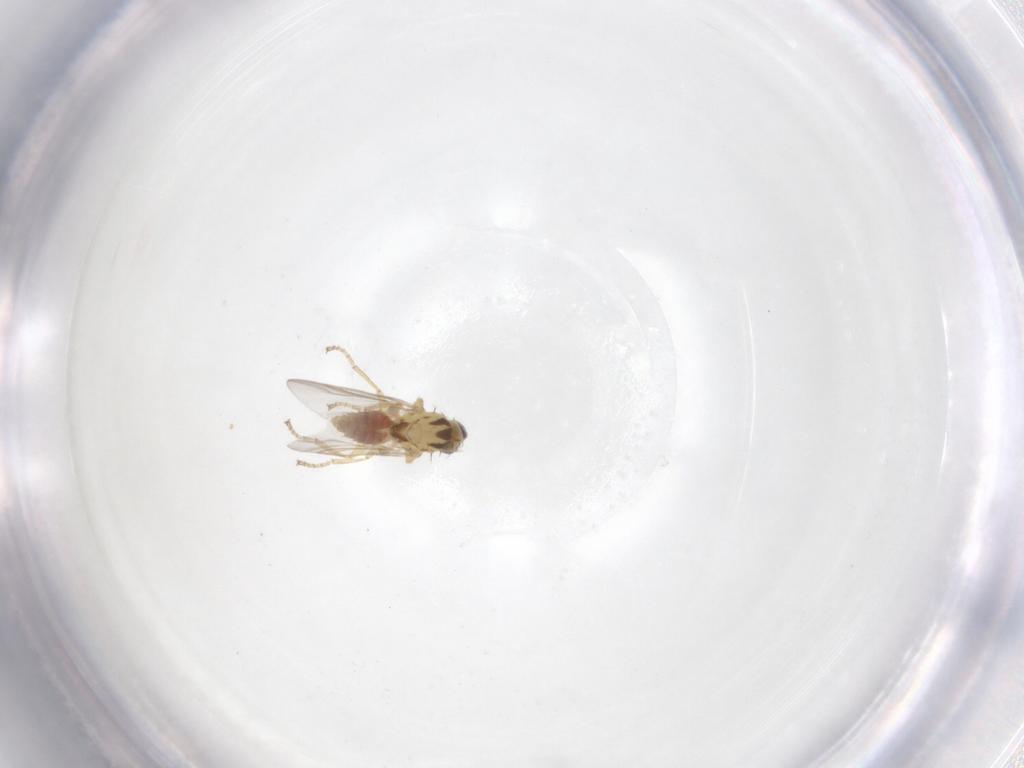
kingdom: Animalia
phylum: Arthropoda
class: Insecta
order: Diptera
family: Agromyzidae
